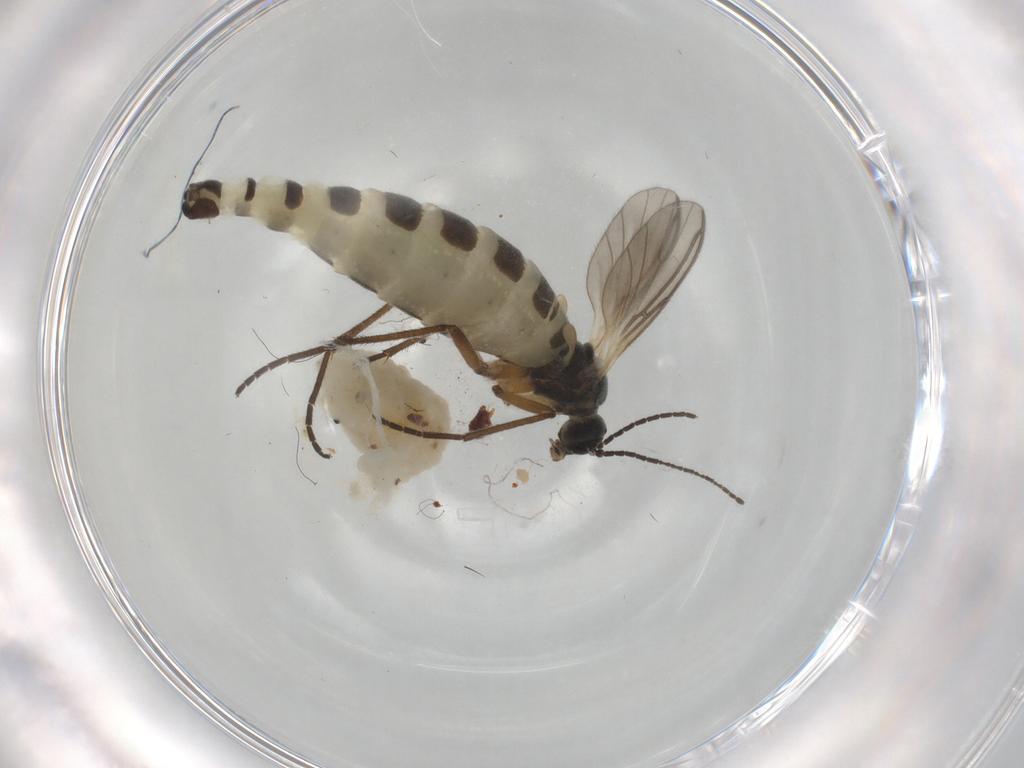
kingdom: Animalia
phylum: Arthropoda
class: Insecta
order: Diptera
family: Sciaridae
